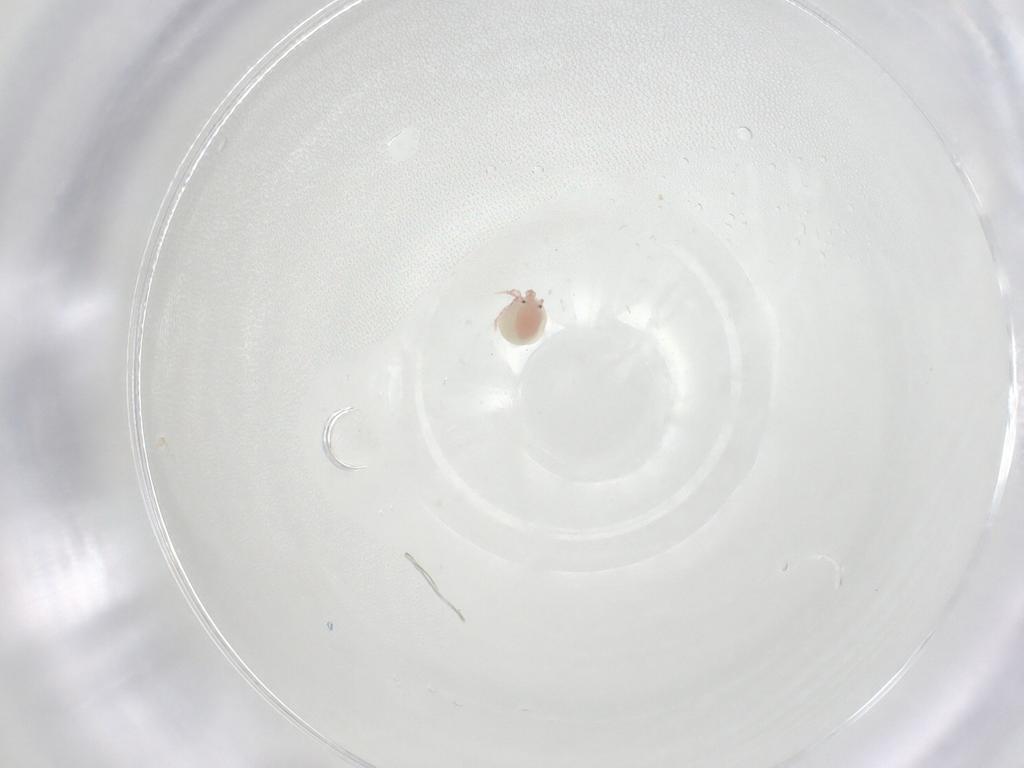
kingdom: Animalia
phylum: Arthropoda
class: Arachnida
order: Trombidiformes
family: Pionidae
